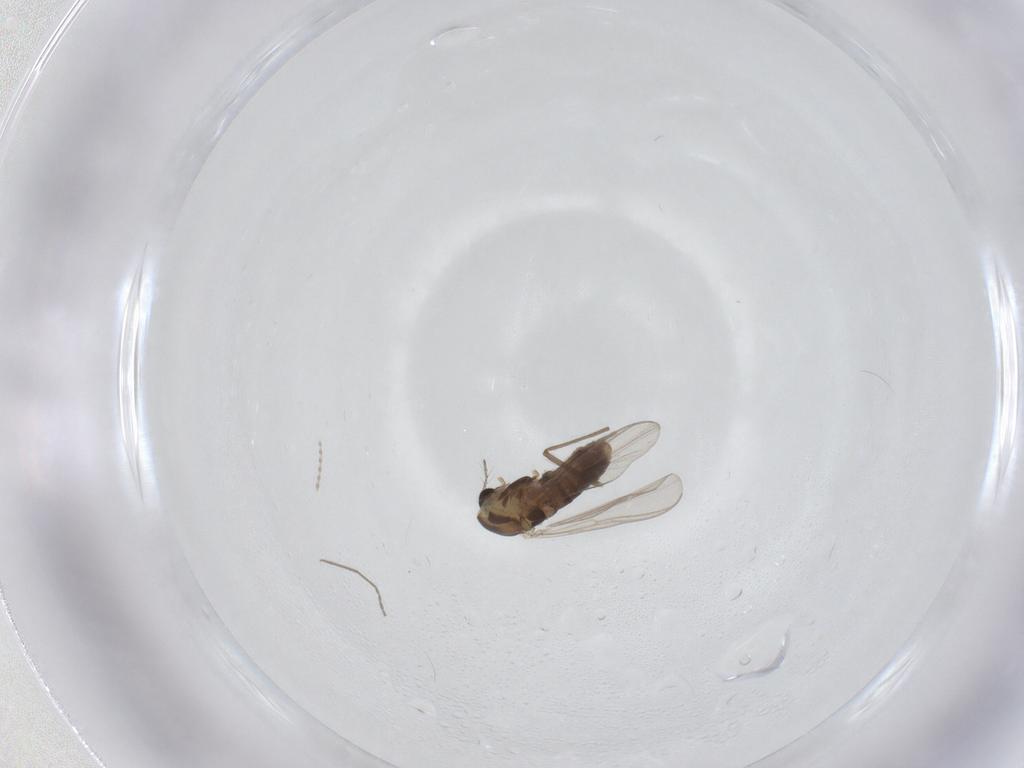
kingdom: Animalia
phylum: Arthropoda
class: Insecta
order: Diptera
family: Chironomidae
